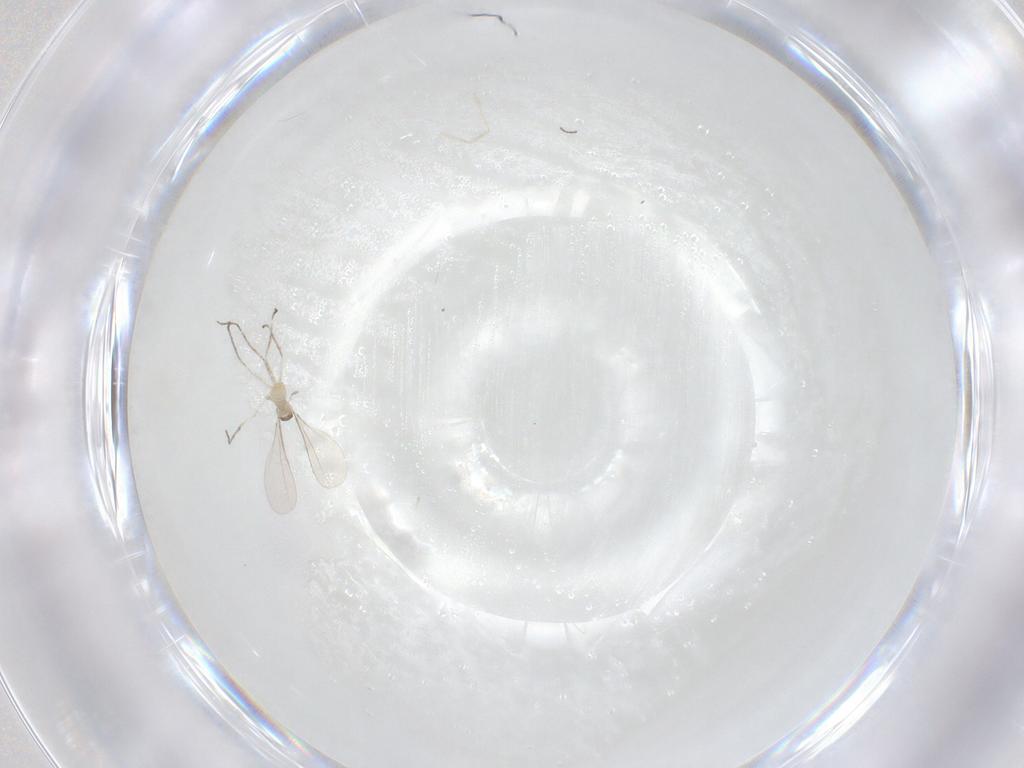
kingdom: Animalia
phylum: Arthropoda
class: Insecta
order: Diptera
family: Cecidomyiidae
